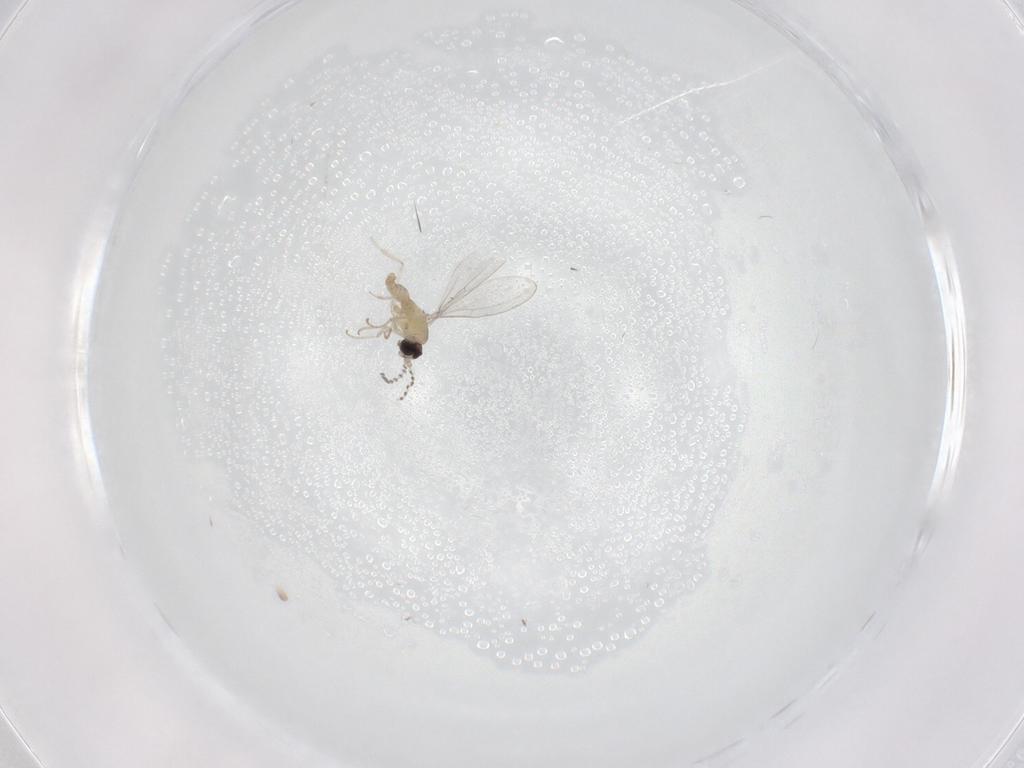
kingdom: Animalia
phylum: Arthropoda
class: Insecta
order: Diptera
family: Cecidomyiidae
